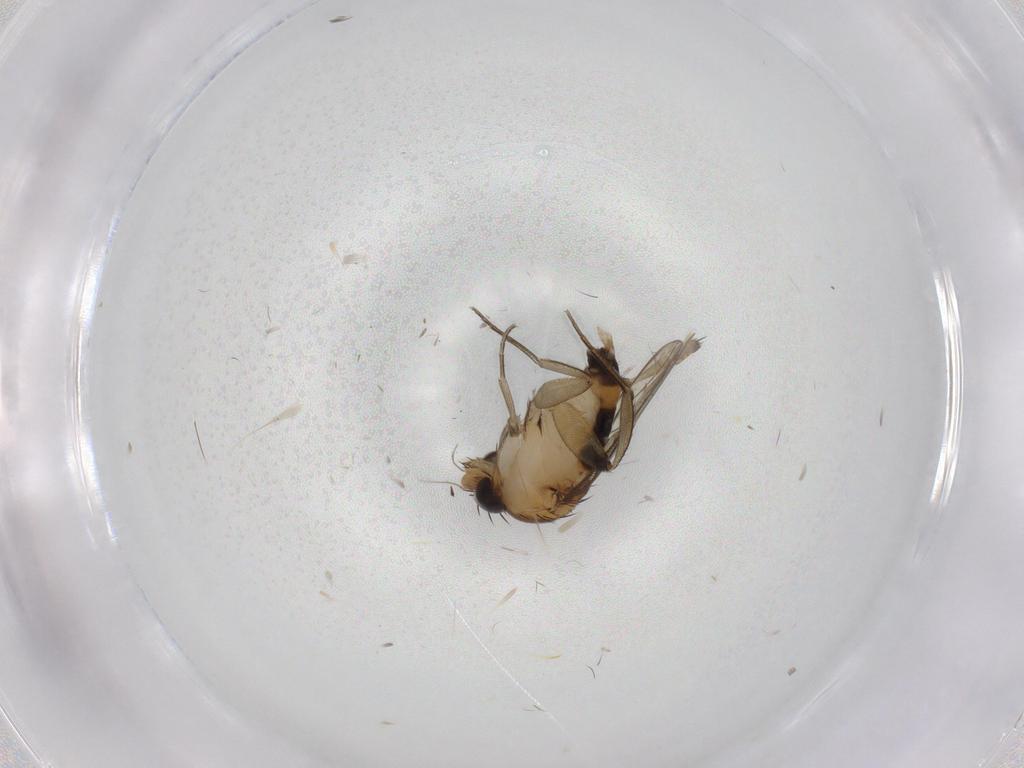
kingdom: Animalia
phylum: Arthropoda
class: Insecta
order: Diptera
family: Phoridae
